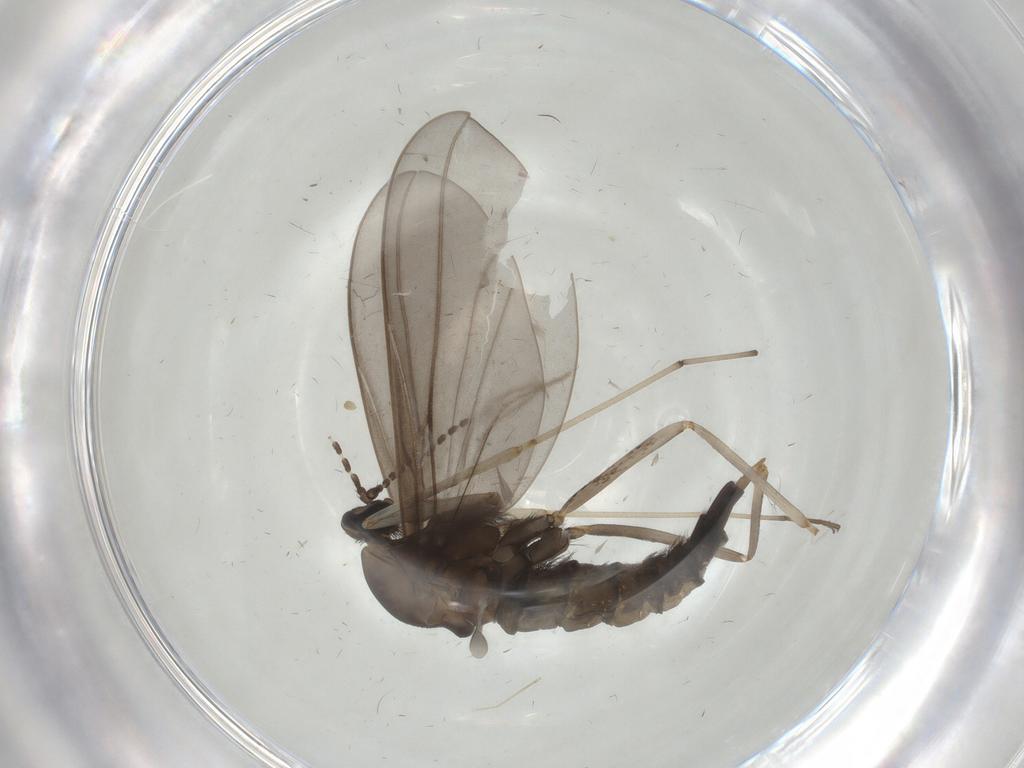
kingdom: Animalia
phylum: Arthropoda
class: Insecta
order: Diptera
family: Cecidomyiidae
